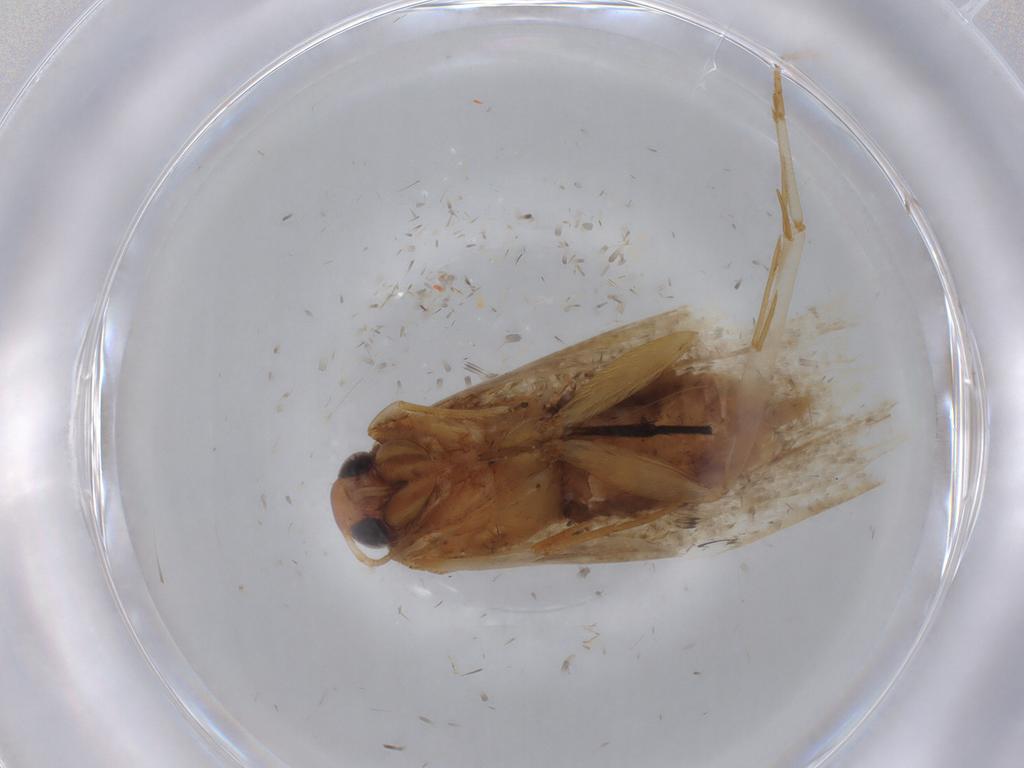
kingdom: Animalia
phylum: Arthropoda
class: Insecta
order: Lepidoptera
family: Gelechiidae
